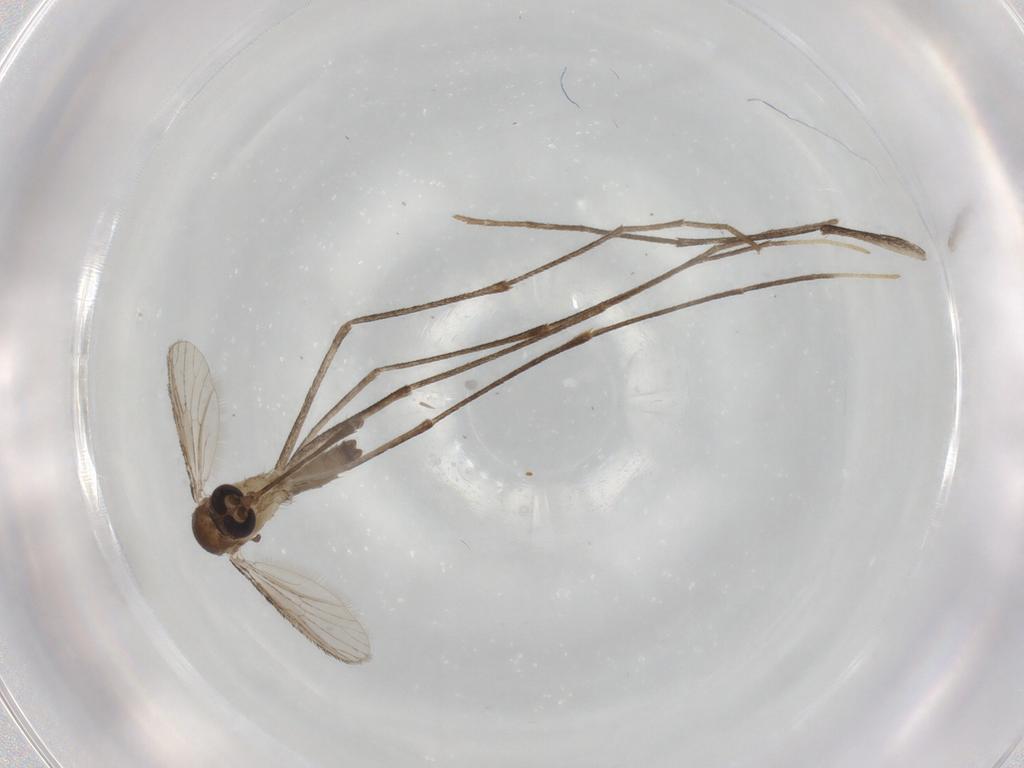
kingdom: Animalia
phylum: Arthropoda
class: Insecta
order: Diptera
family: Culicidae
